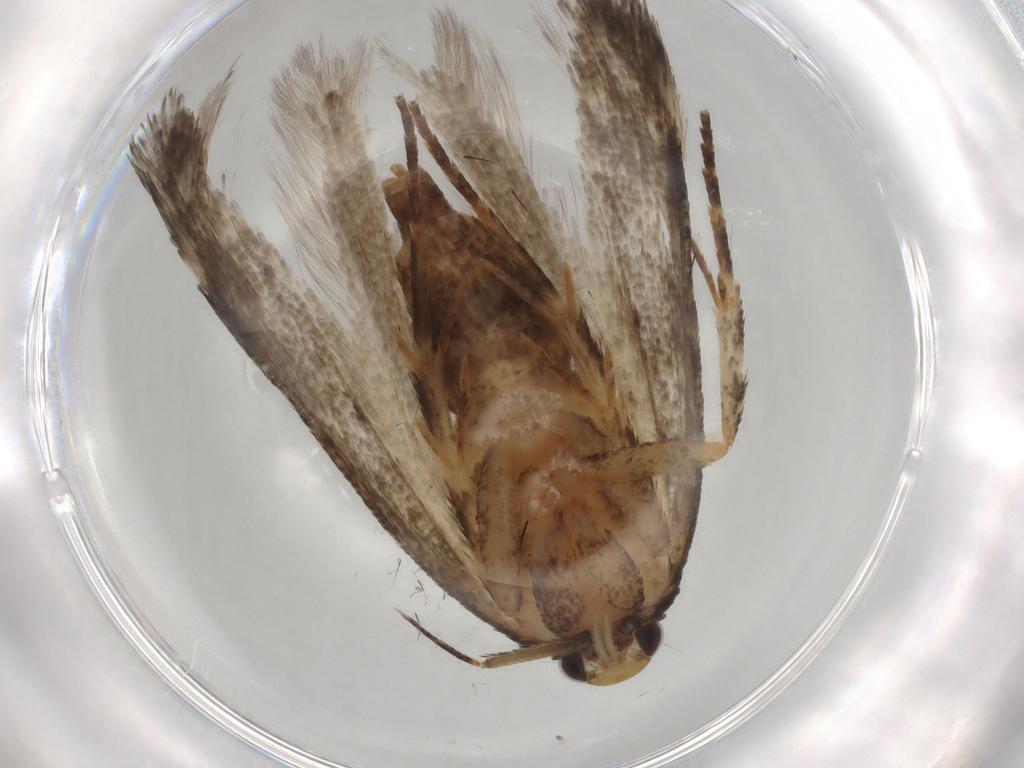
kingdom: Animalia
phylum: Arthropoda
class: Insecta
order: Lepidoptera
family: Gelechiidae
